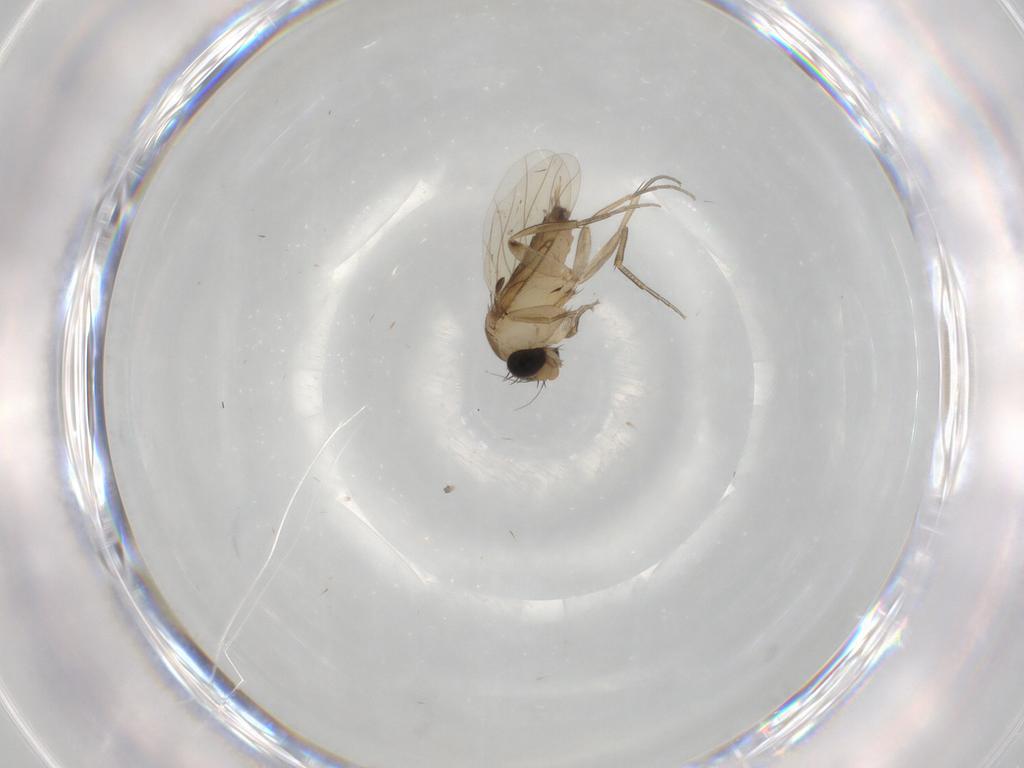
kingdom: Animalia
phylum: Arthropoda
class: Insecta
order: Diptera
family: Phoridae
